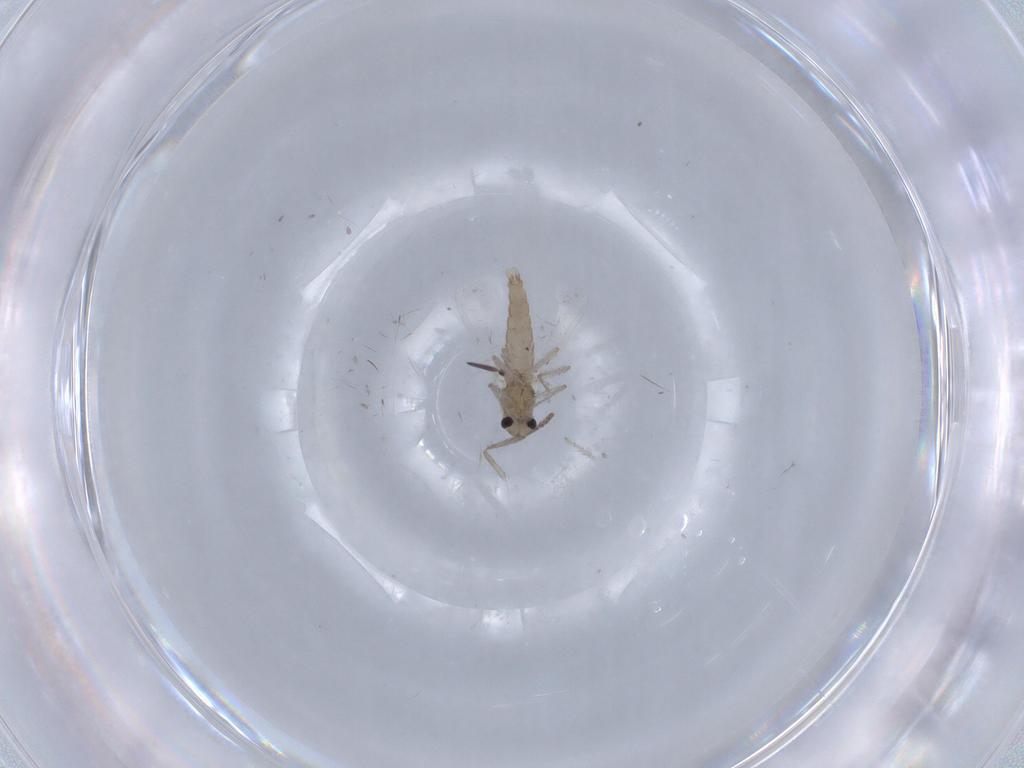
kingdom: Animalia
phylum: Arthropoda
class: Insecta
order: Diptera
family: Chironomidae
